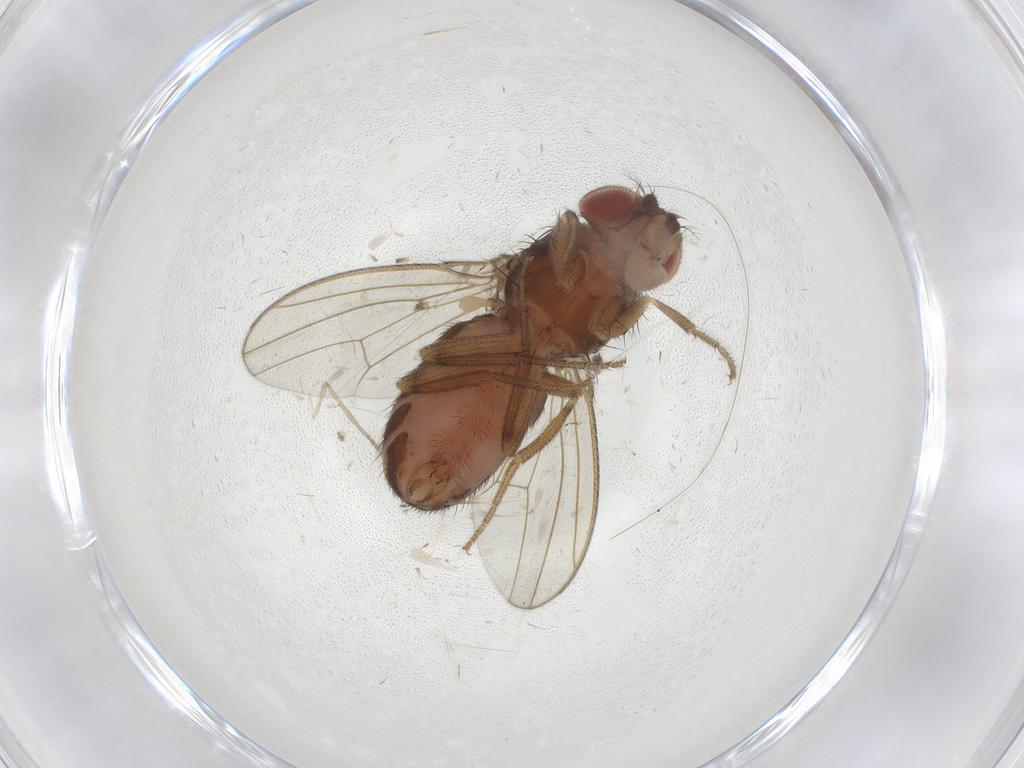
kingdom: Animalia
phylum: Arthropoda
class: Insecta
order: Diptera
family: Drosophilidae
